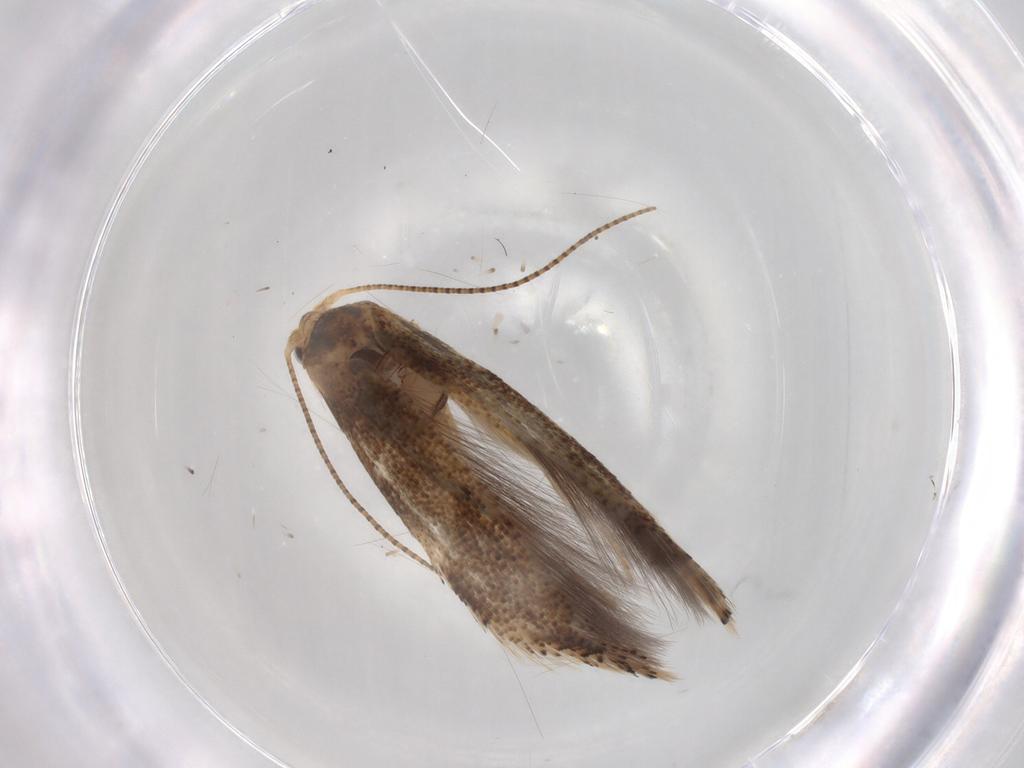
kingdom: Animalia
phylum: Arthropoda
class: Insecta
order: Lepidoptera
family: Bucculatricidae
